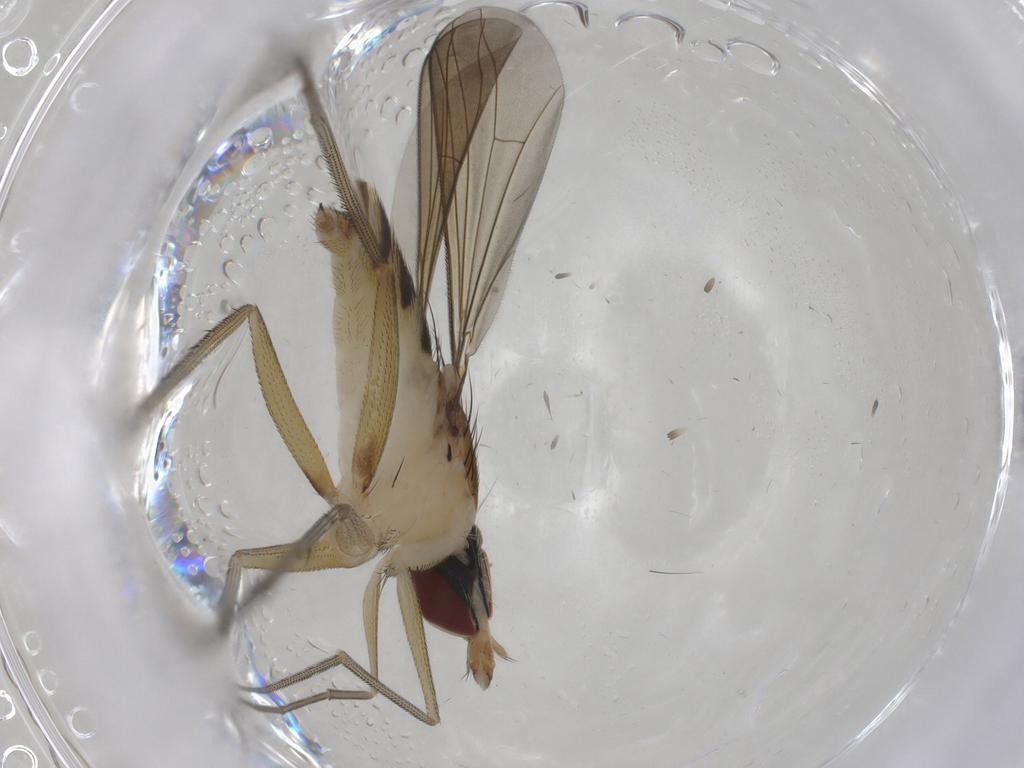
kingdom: Animalia
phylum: Arthropoda
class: Insecta
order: Diptera
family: Dolichopodidae
